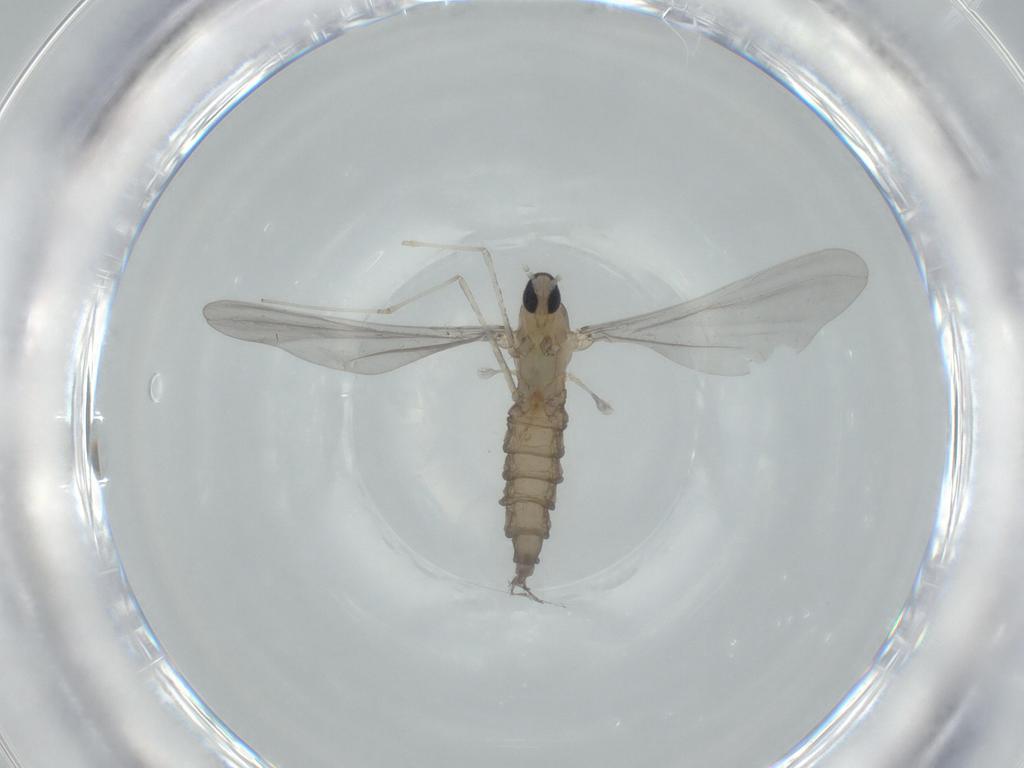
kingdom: Animalia
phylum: Arthropoda
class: Insecta
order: Diptera
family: Cecidomyiidae
